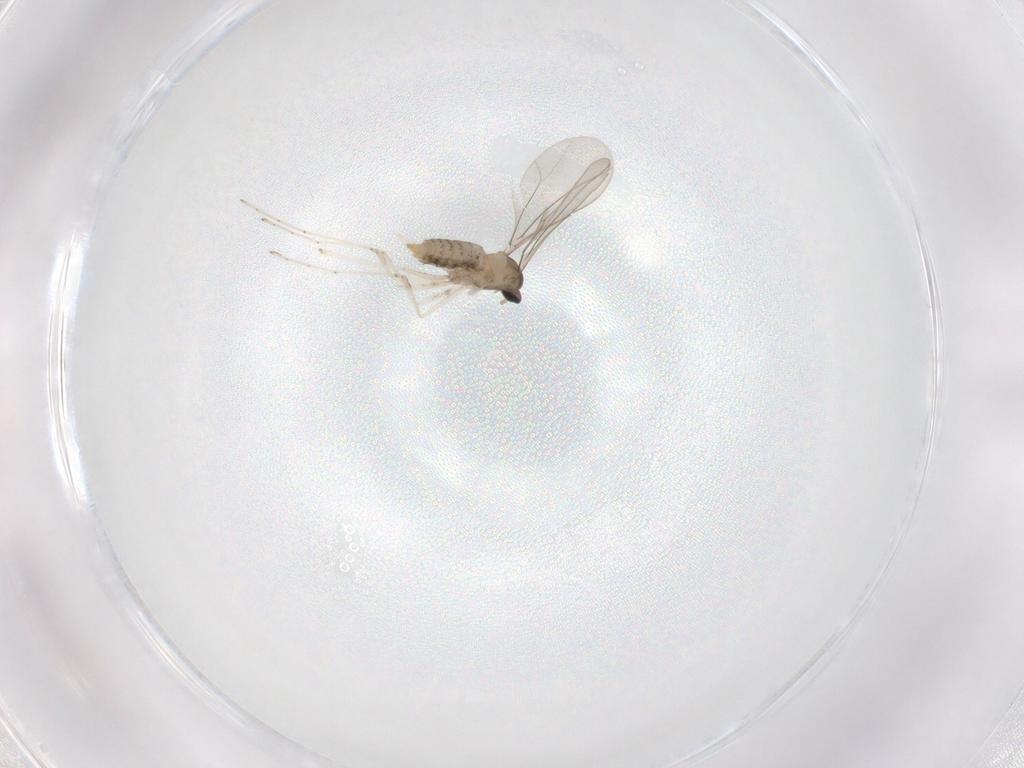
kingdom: Animalia
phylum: Arthropoda
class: Insecta
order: Diptera
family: Cecidomyiidae
